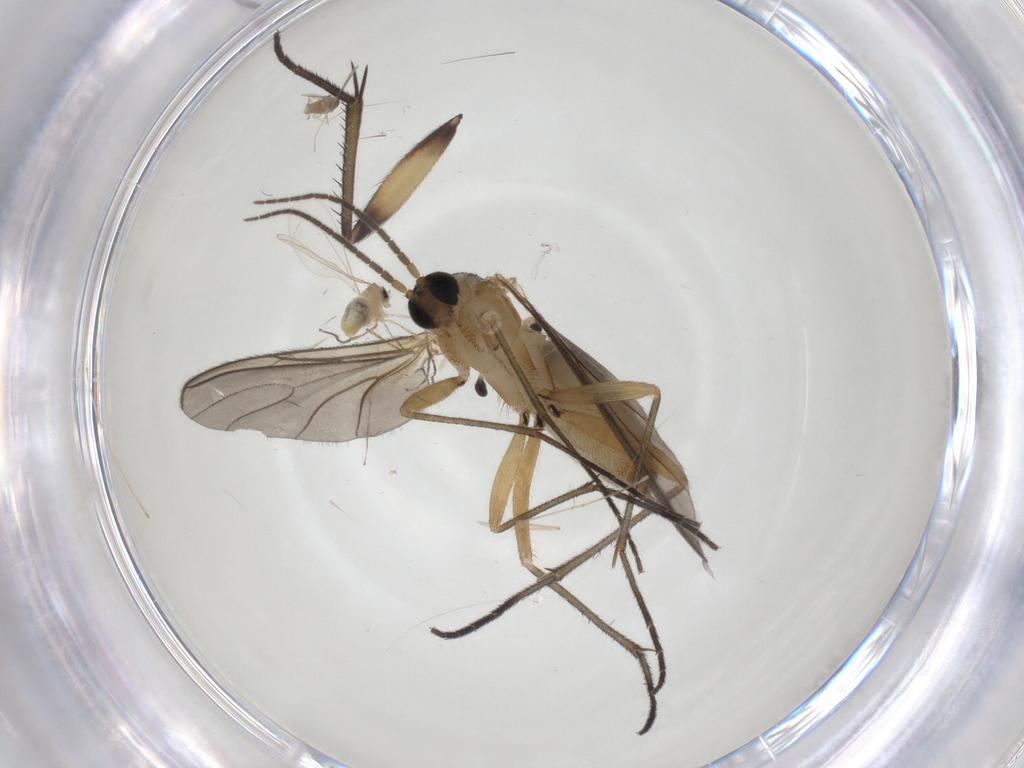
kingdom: Animalia
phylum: Arthropoda
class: Insecta
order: Diptera
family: Sciaridae
